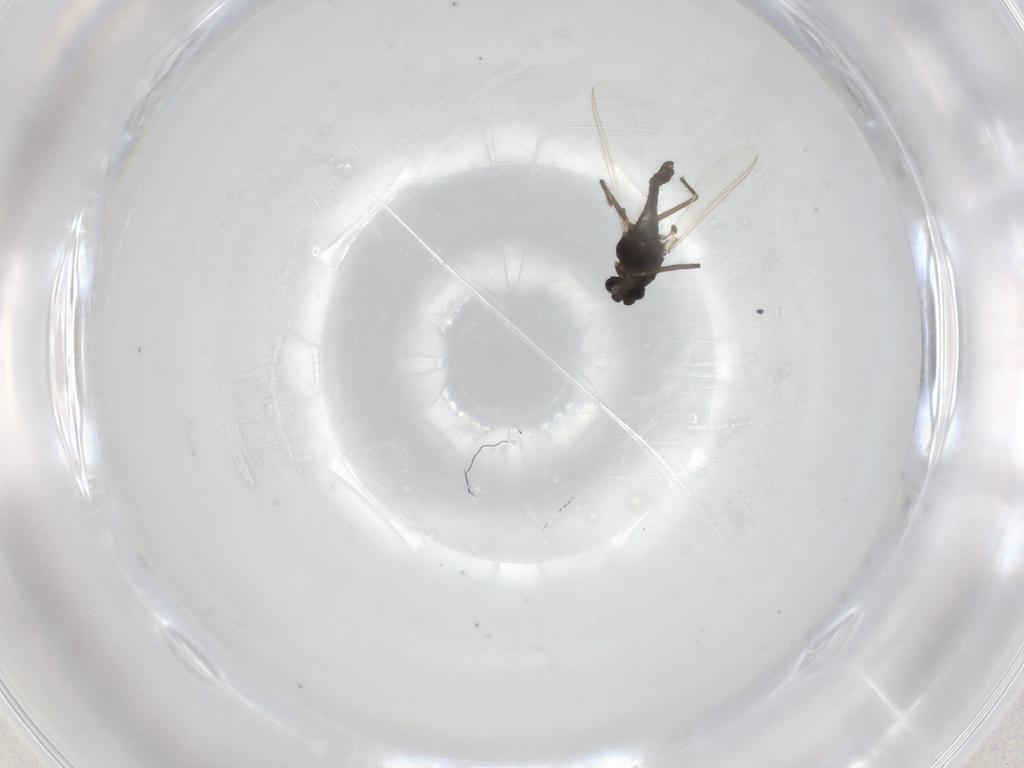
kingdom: Animalia
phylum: Arthropoda
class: Insecta
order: Diptera
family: Chironomidae
